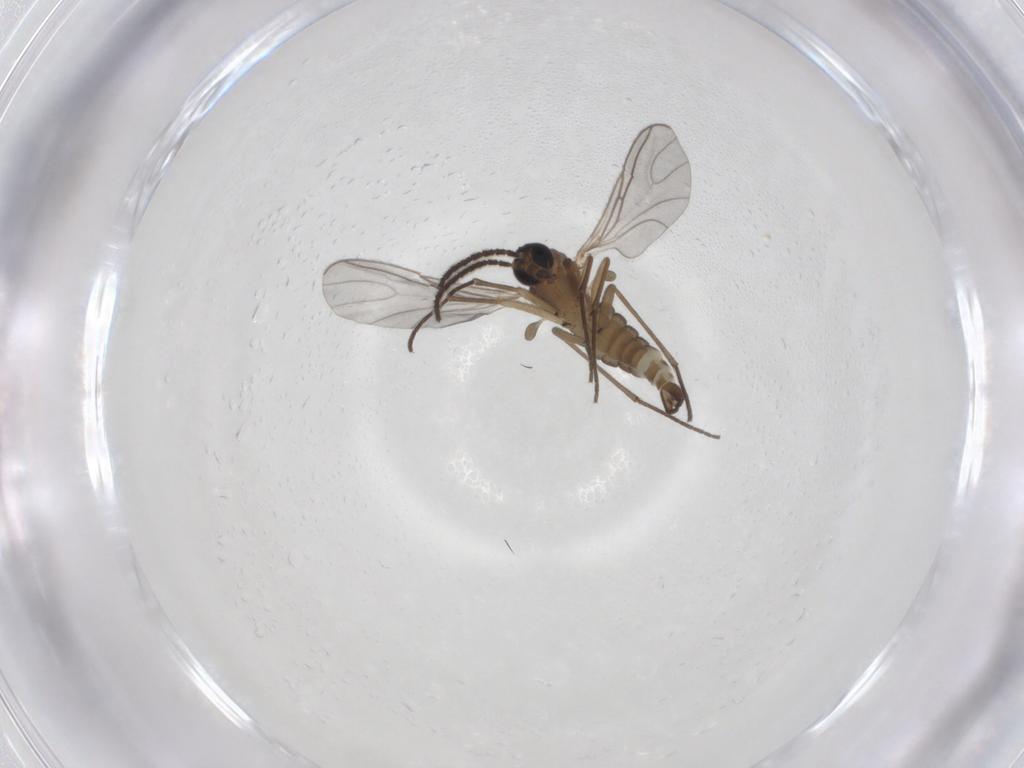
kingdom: Animalia
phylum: Arthropoda
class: Insecta
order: Diptera
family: Sciaridae
